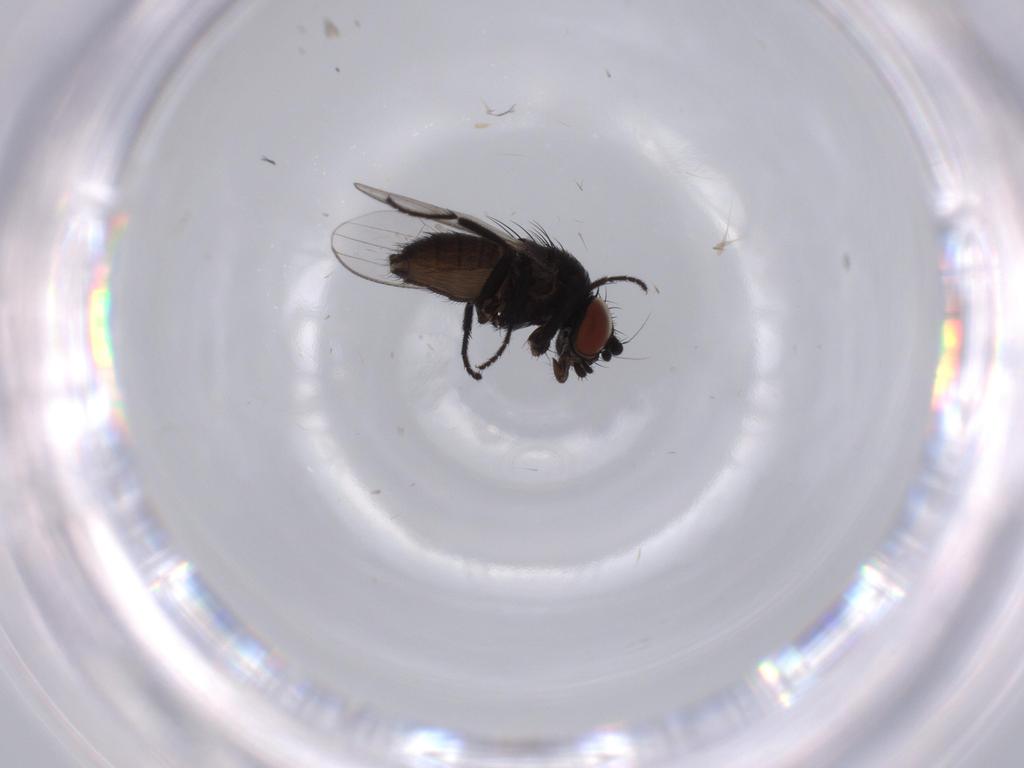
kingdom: Animalia
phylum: Arthropoda
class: Insecta
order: Diptera
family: Milichiidae
